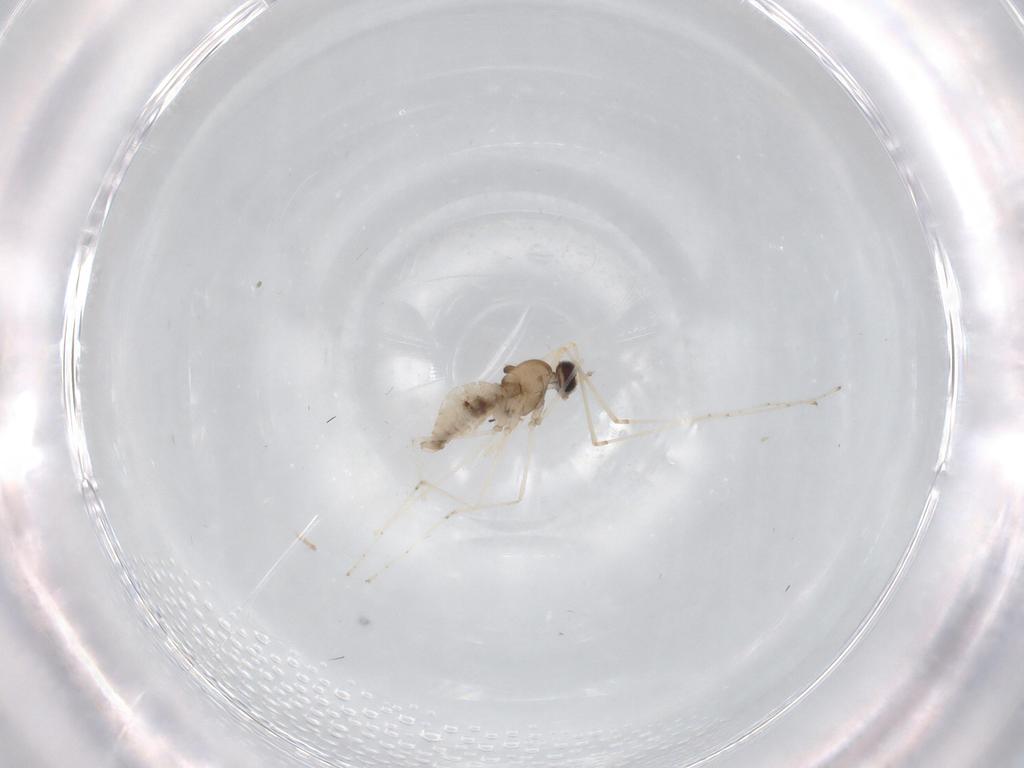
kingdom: Animalia
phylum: Arthropoda
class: Insecta
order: Diptera
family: Cecidomyiidae
